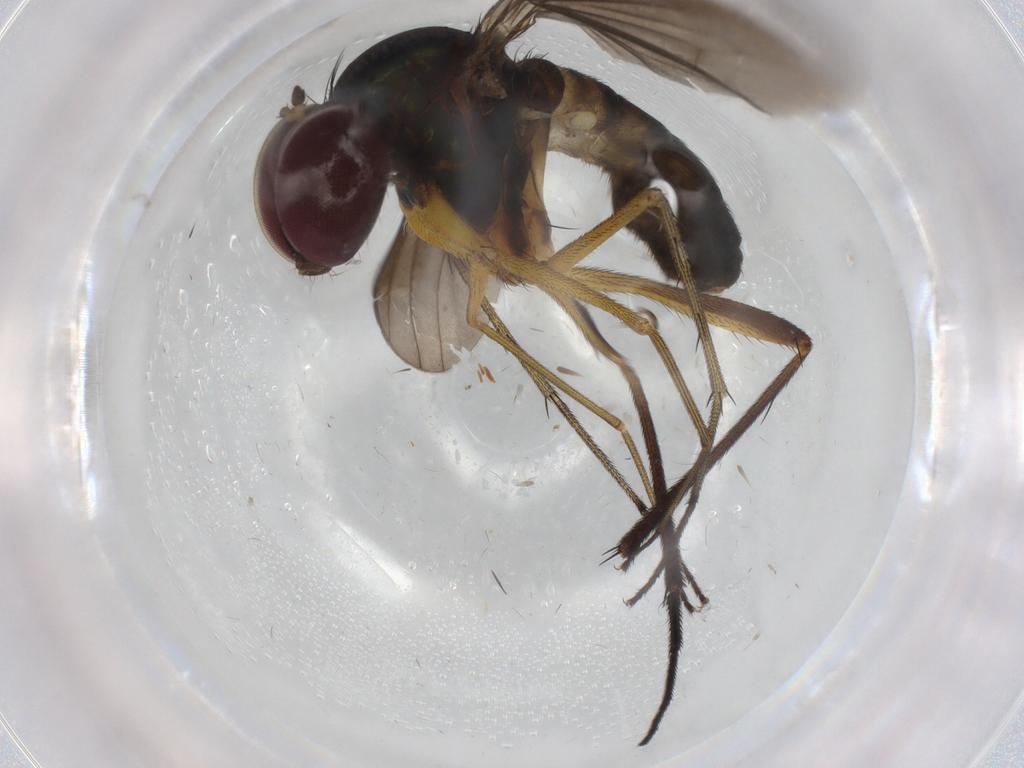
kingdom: Animalia
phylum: Arthropoda
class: Insecta
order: Diptera
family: Dolichopodidae
